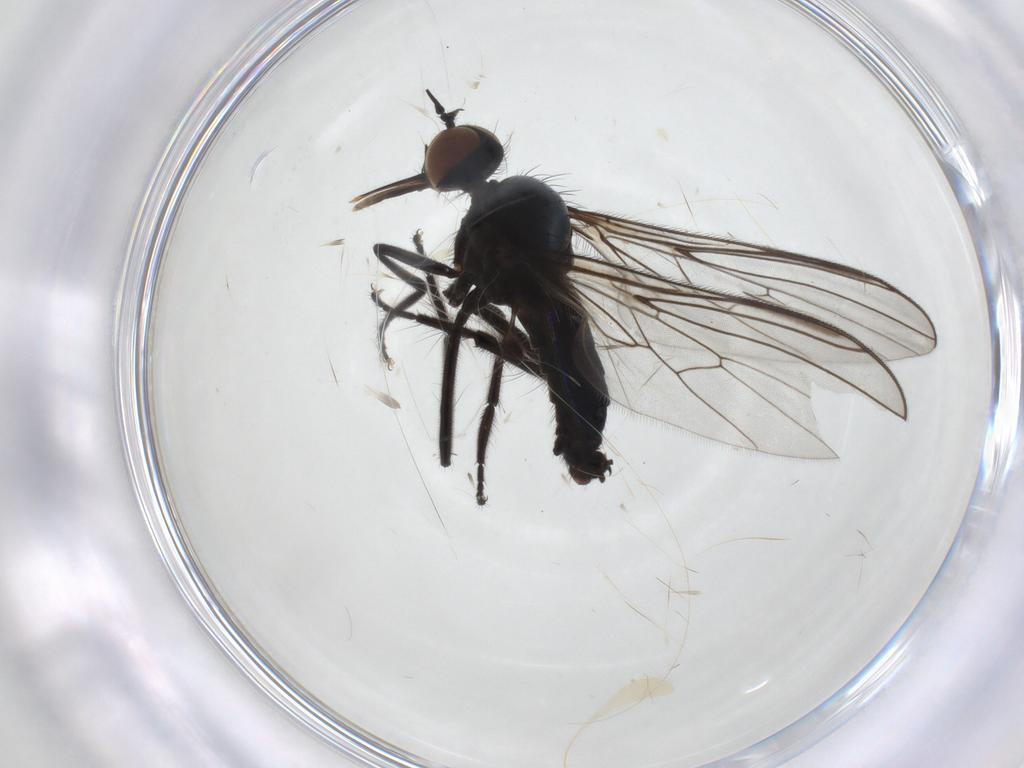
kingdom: Animalia
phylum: Arthropoda
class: Insecta
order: Diptera
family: Empididae
